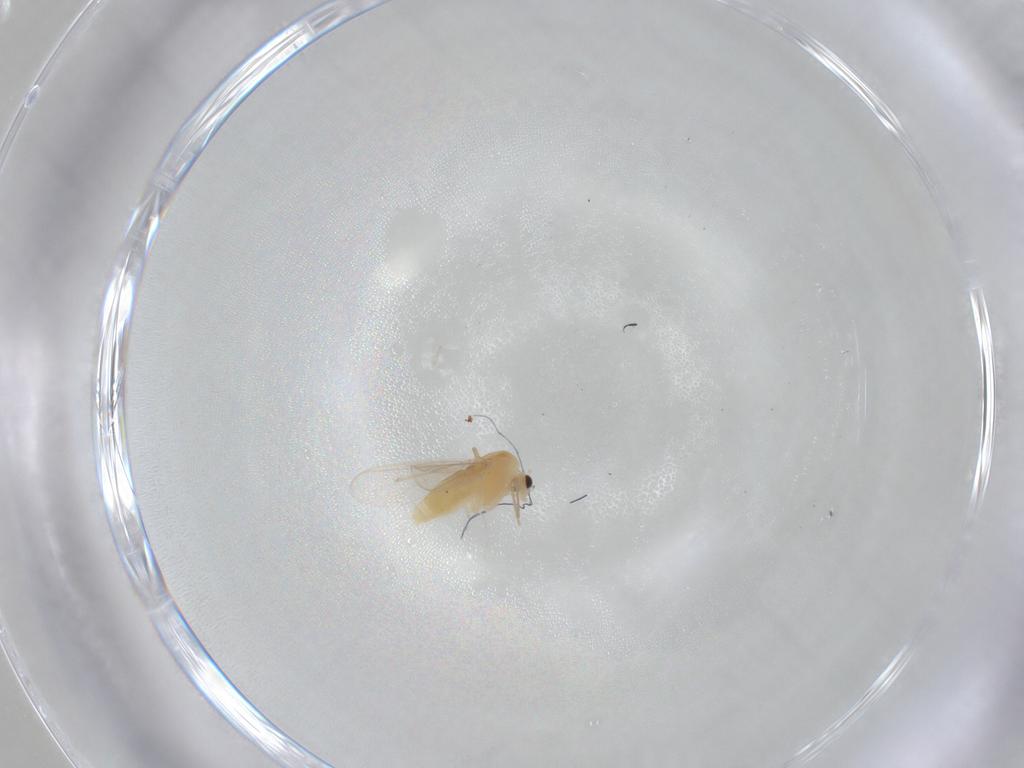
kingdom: Animalia
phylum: Arthropoda
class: Insecta
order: Diptera
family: Chironomidae
